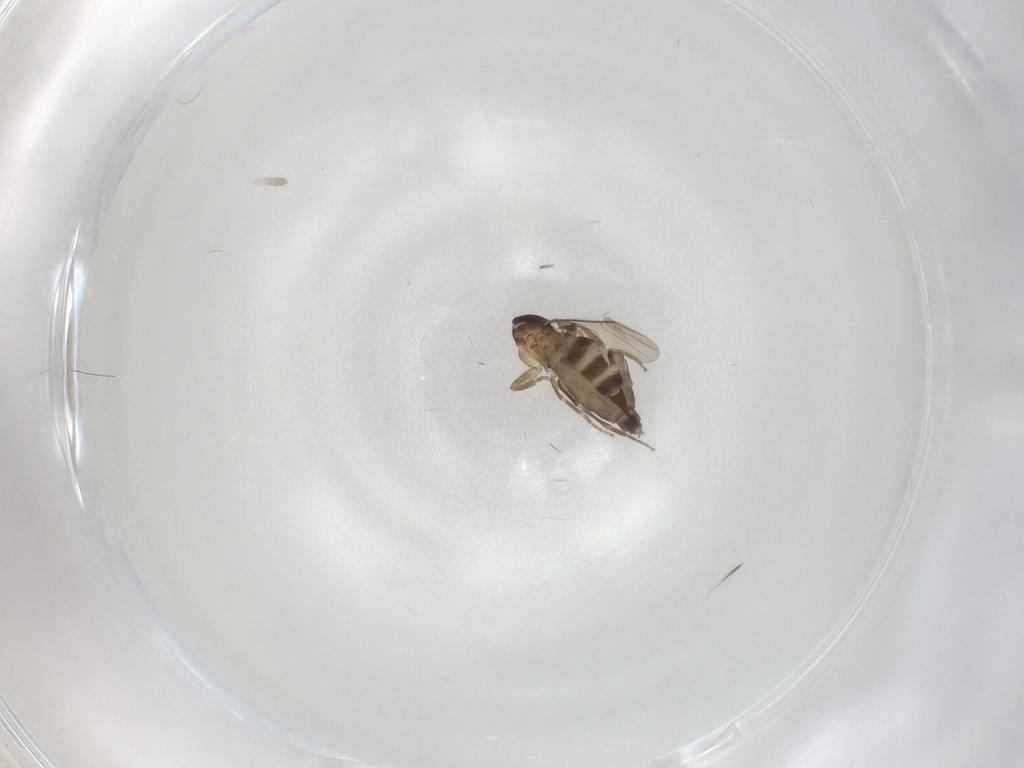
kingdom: Animalia
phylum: Arthropoda
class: Insecta
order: Diptera
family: Phoridae
